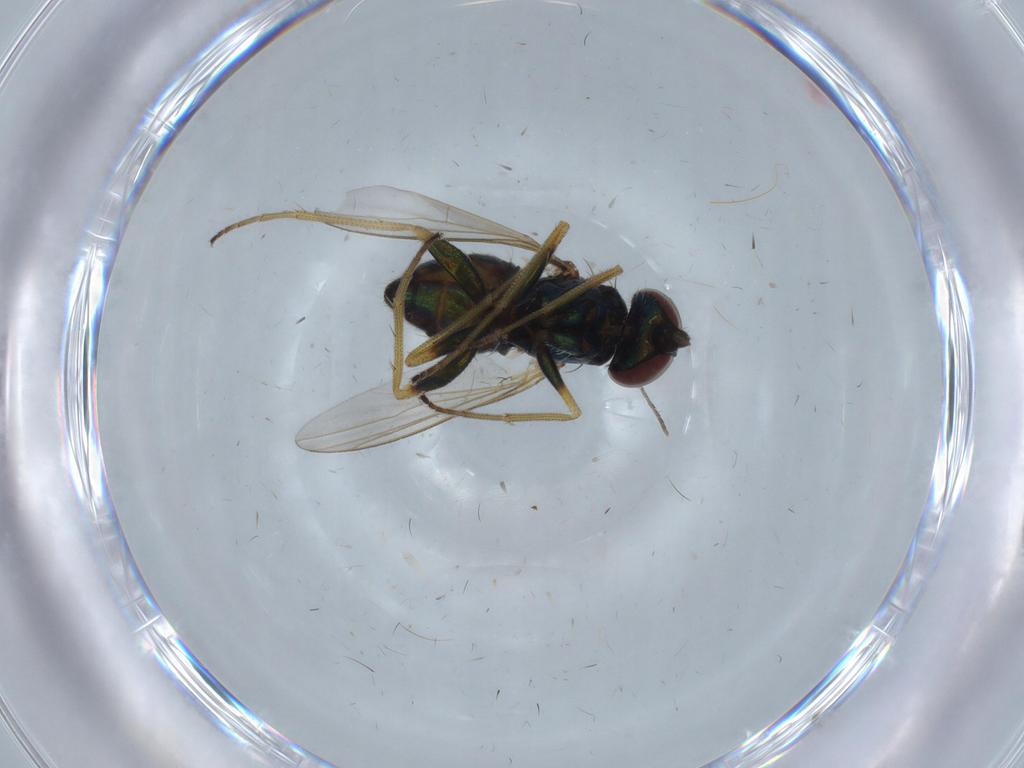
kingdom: Animalia
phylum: Arthropoda
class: Insecta
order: Diptera
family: Dolichopodidae
